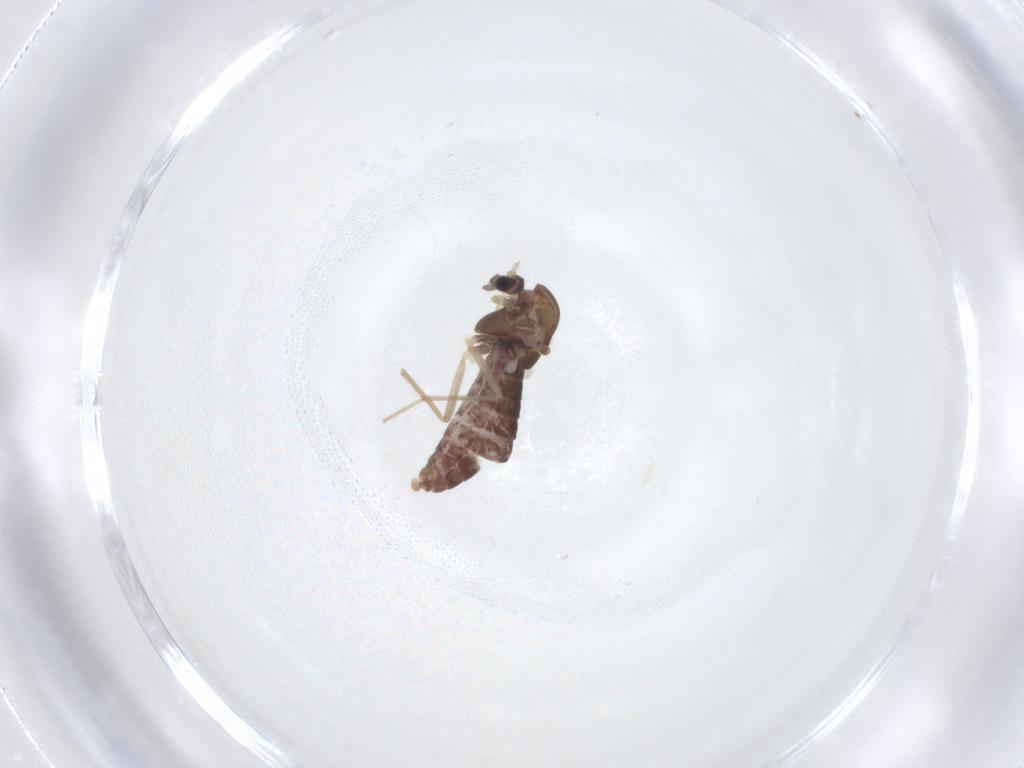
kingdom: Animalia
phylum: Arthropoda
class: Insecta
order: Diptera
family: Chironomidae
